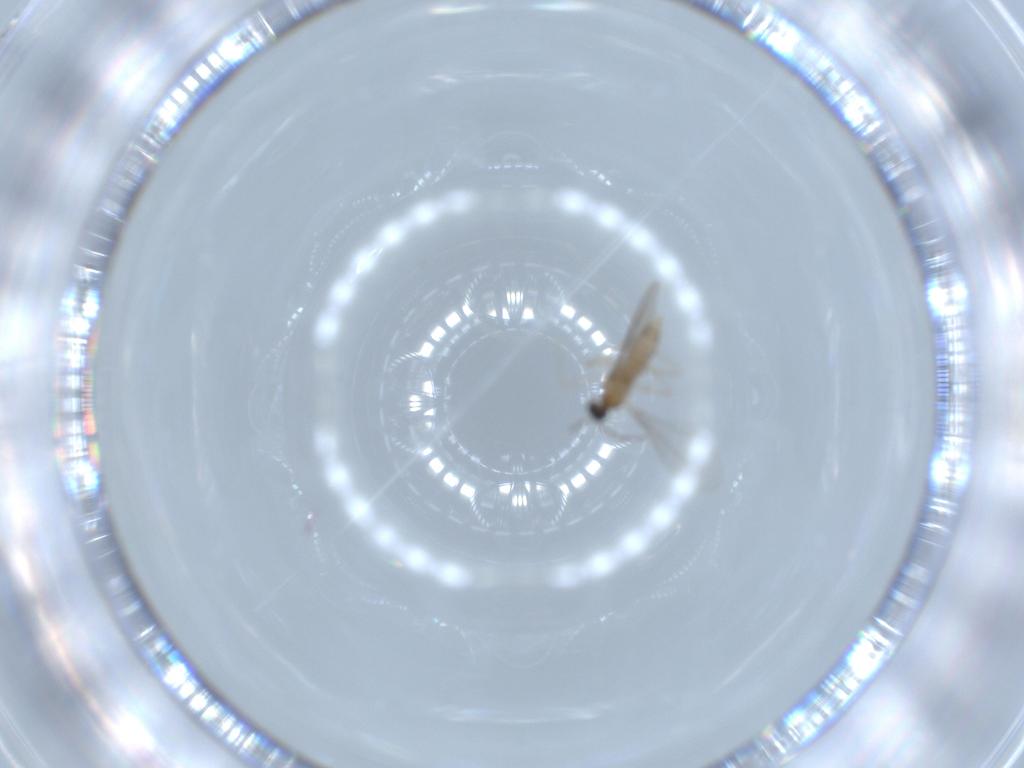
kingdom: Animalia
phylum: Arthropoda
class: Insecta
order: Diptera
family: Cecidomyiidae
